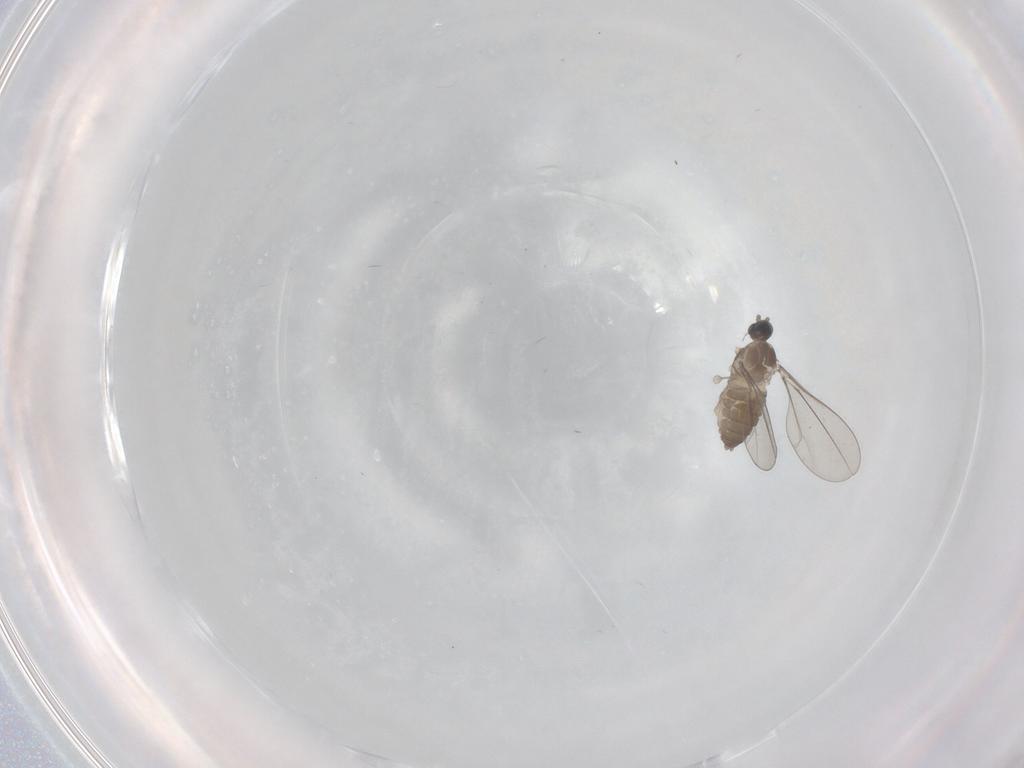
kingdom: Animalia
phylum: Arthropoda
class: Insecta
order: Diptera
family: Cecidomyiidae
